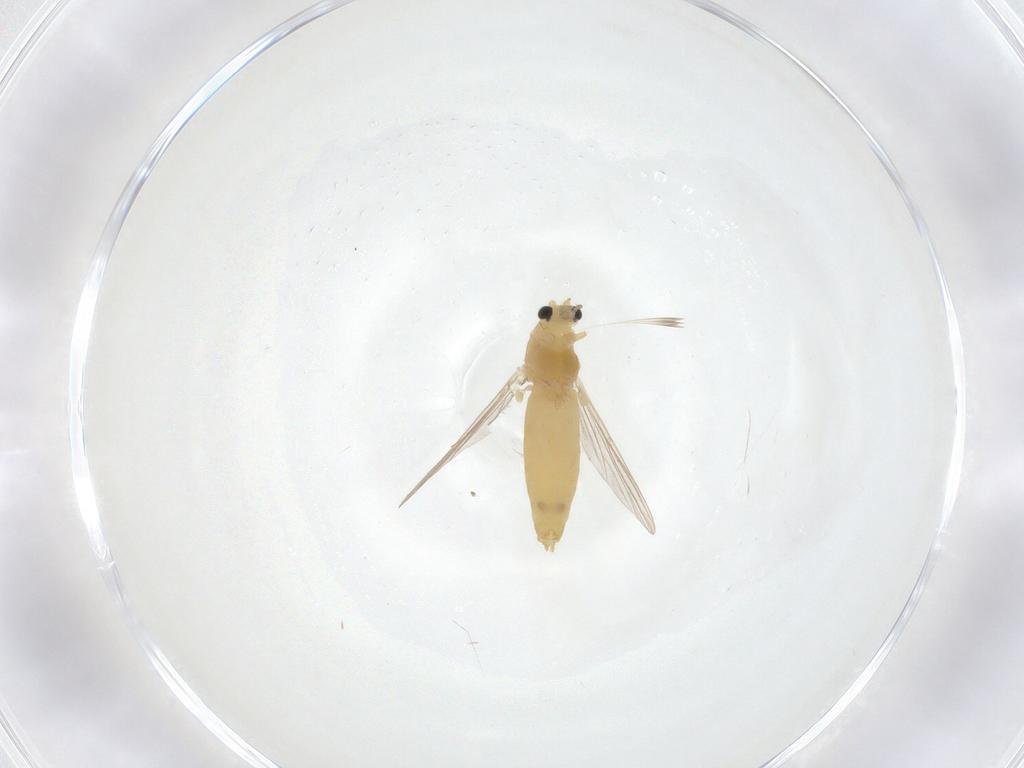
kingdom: Animalia
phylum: Arthropoda
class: Insecta
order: Diptera
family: Chironomidae
